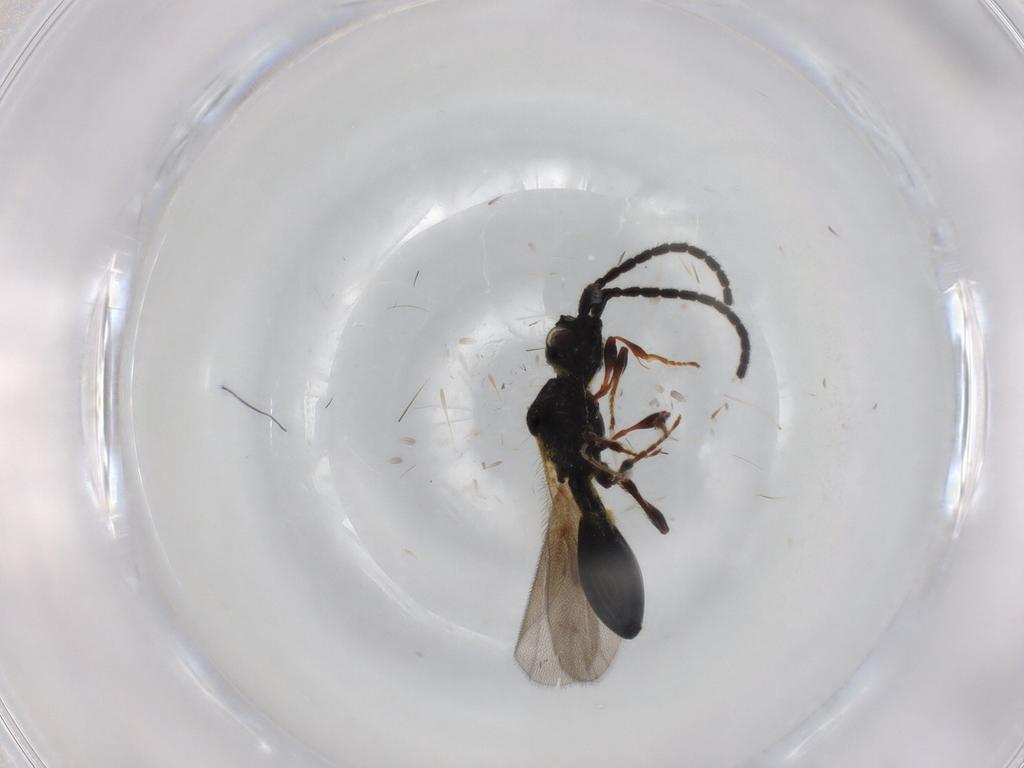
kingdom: Animalia
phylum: Arthropoda
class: Insecta
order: Hymenoptera
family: Diapriidae
